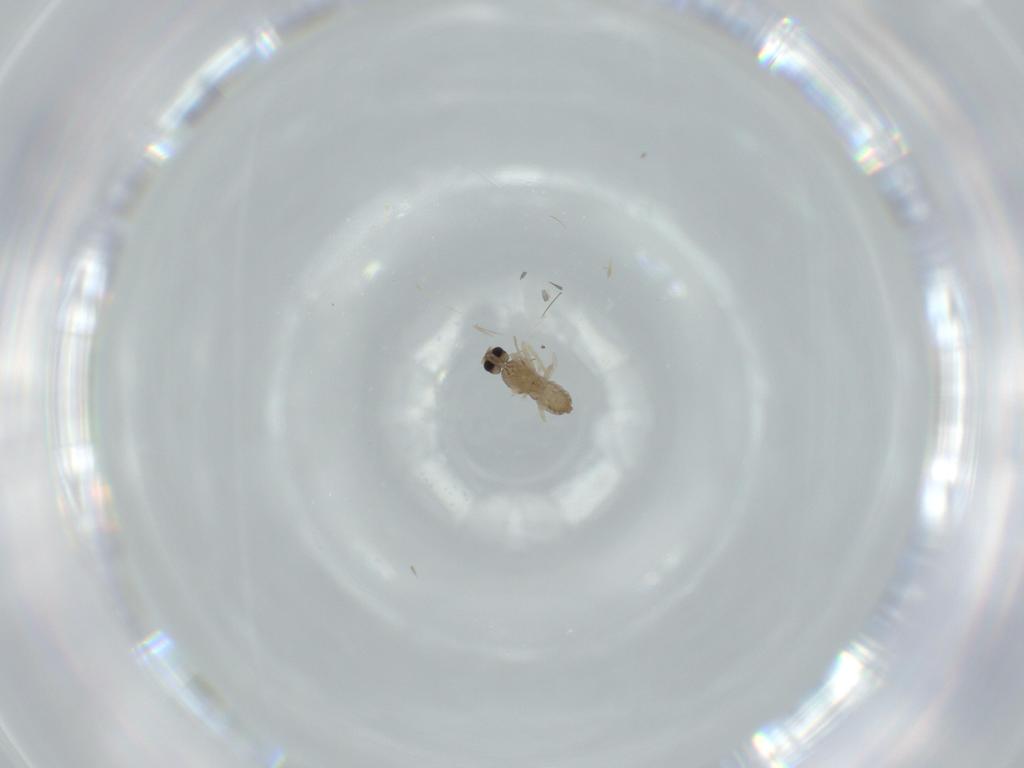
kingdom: Animalia
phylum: Arthropoda
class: Insecta
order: Diptera
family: Cecidomyiidae
